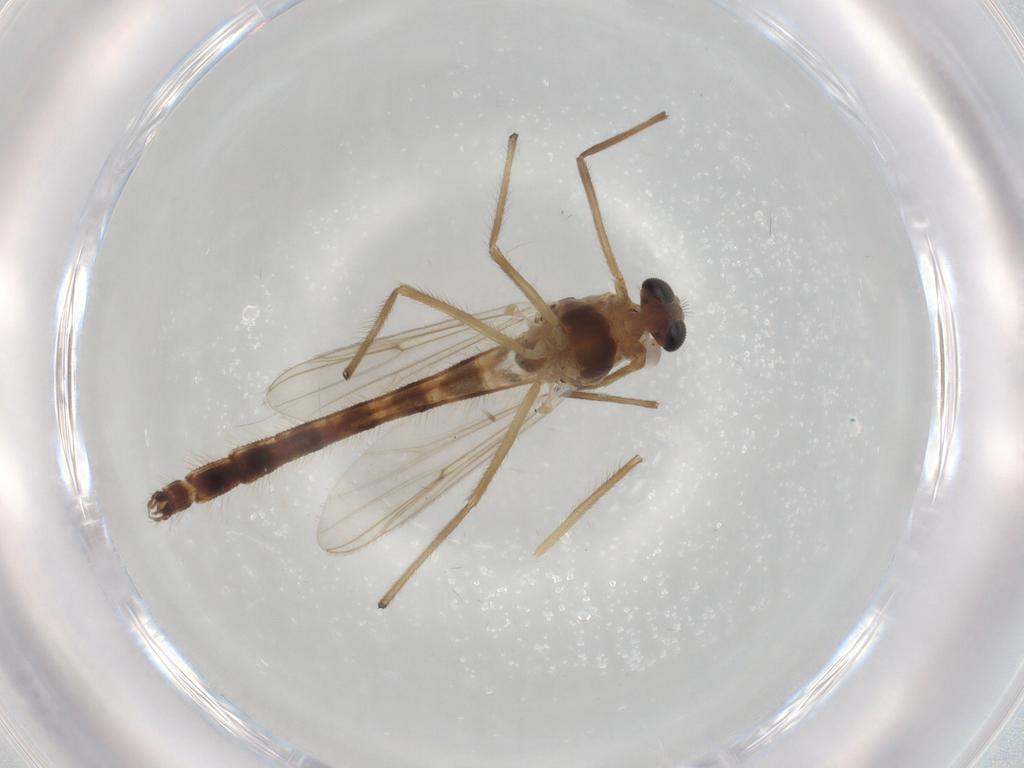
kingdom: Animalia
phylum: Arthropoda
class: Insecta
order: Diptera
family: Chironomidae
